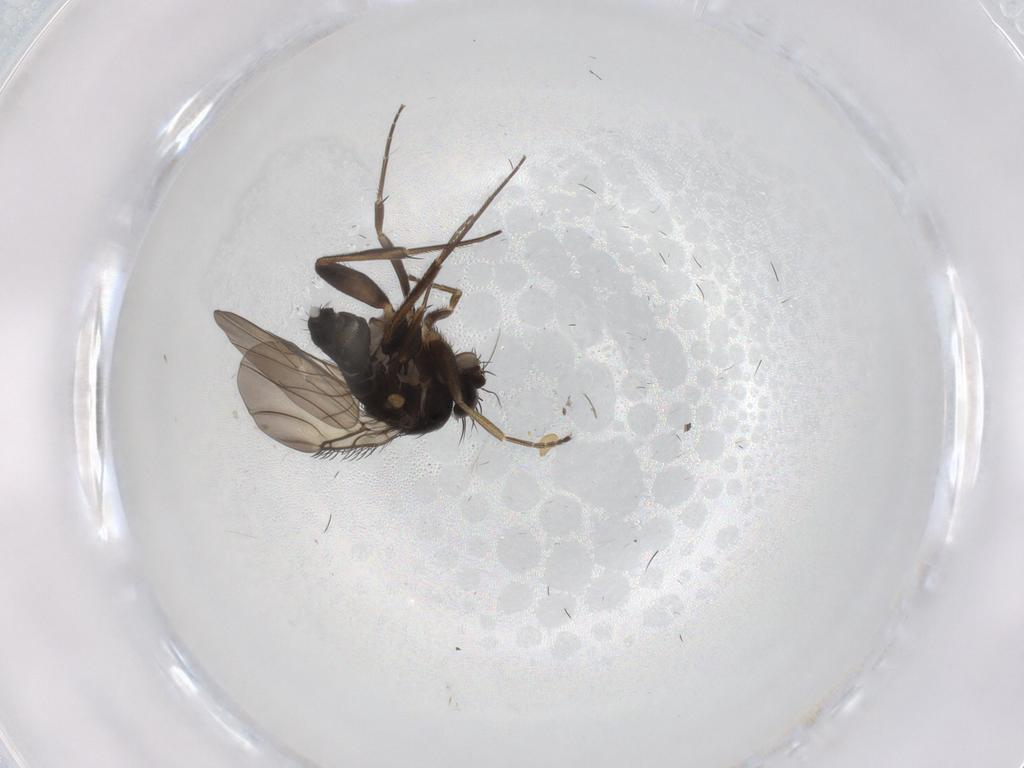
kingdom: Animalia
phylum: Arthropoda
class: Insecta
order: Diptera
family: Phoridae
